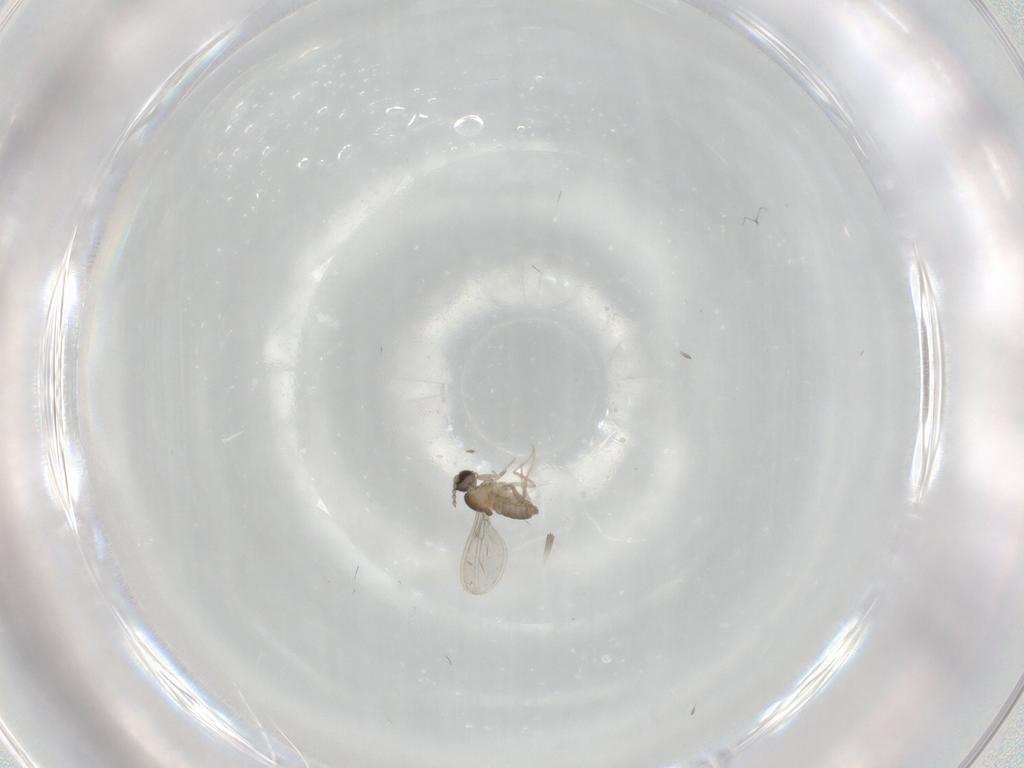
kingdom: Animalia
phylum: Arthropoda
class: Insecta
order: Diptera
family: Cecidomyiidae
